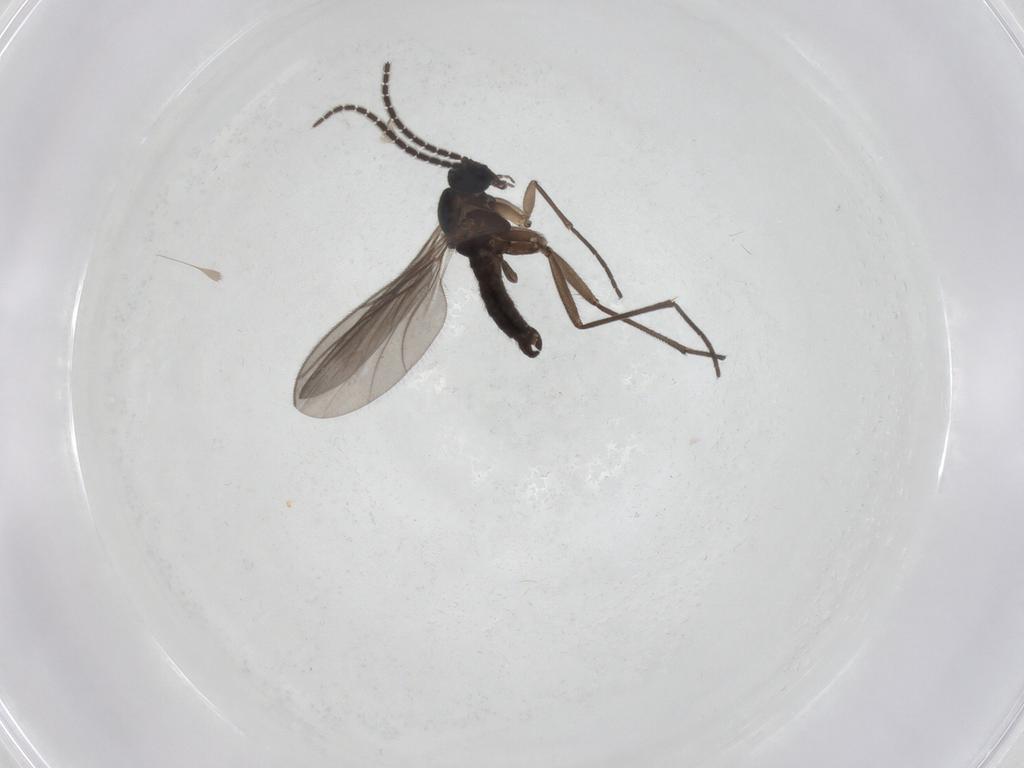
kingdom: Animalia
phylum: Arthropoda
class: Insecta
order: Diptera
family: Sciaridae
